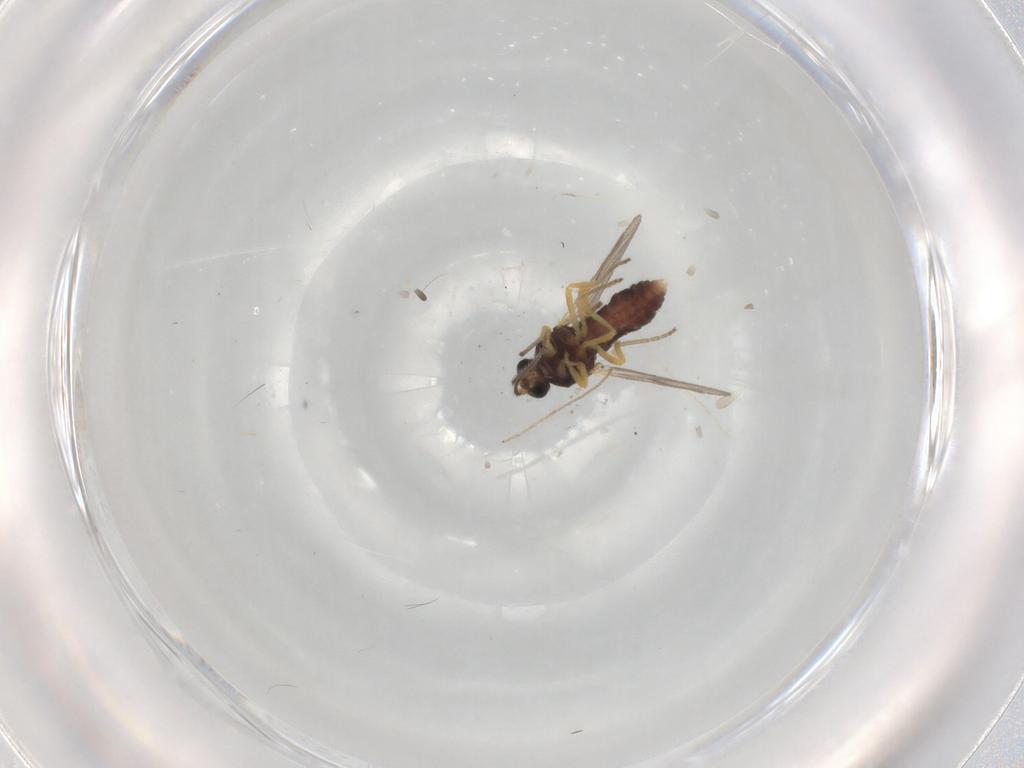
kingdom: Animalia
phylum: Arthropoda
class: Insecta
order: Diptera
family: Ceratopogonidae
